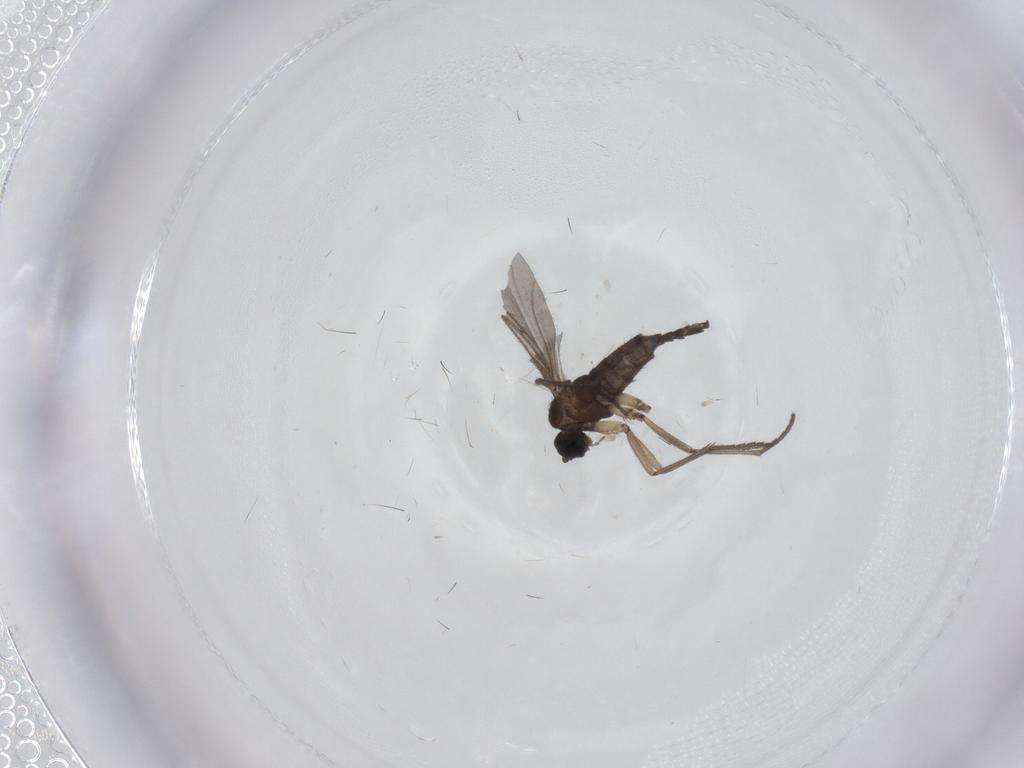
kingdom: Animalia
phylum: Arthropoda
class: Insecta
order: Diptera
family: Sciaridae
